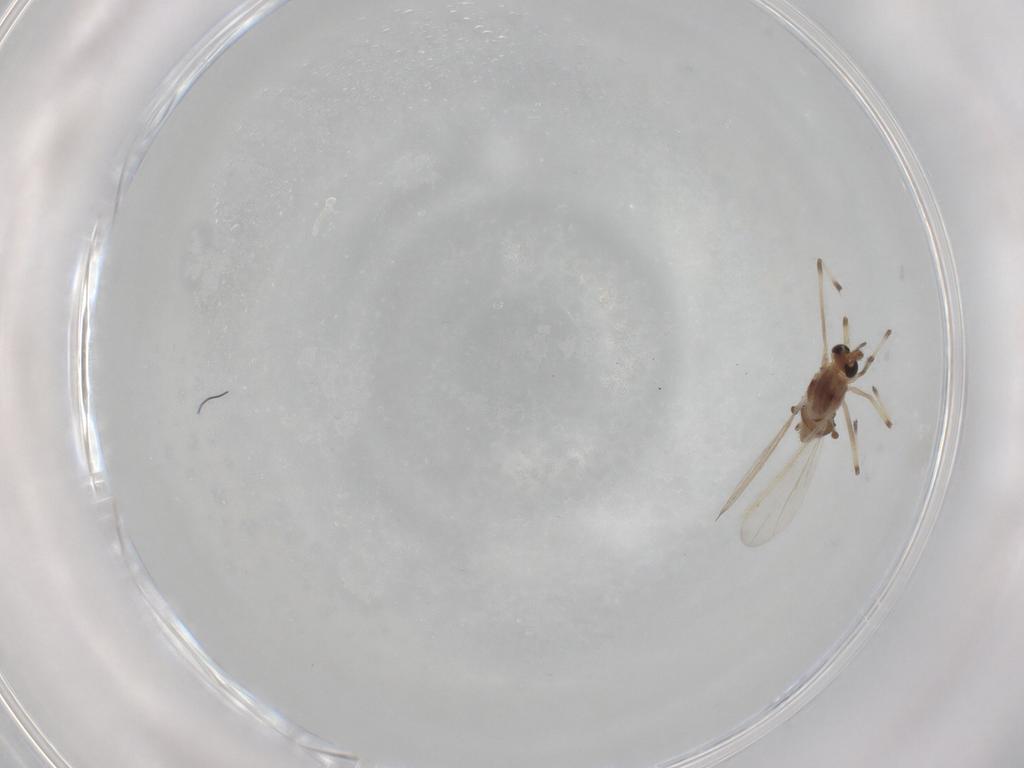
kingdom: Animalia
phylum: Arthropoda
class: Insecta
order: Diptera
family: Chironomidae
